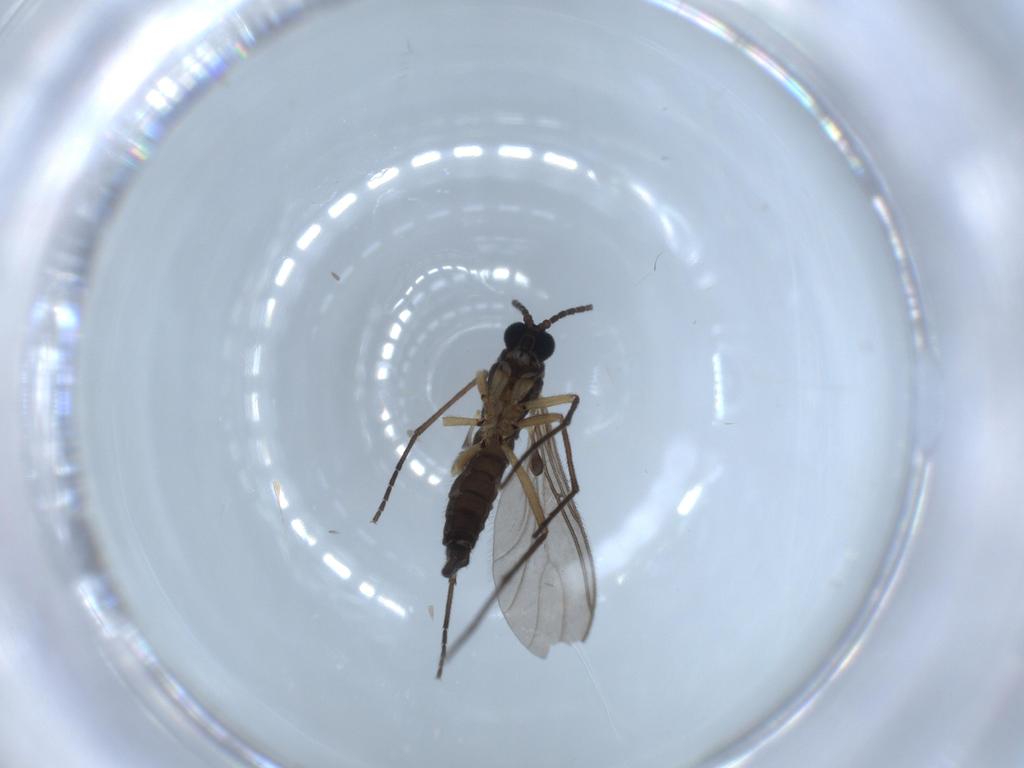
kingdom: Animalia
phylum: Arthropoda
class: Insecta
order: Diptera
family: Sciaridae
